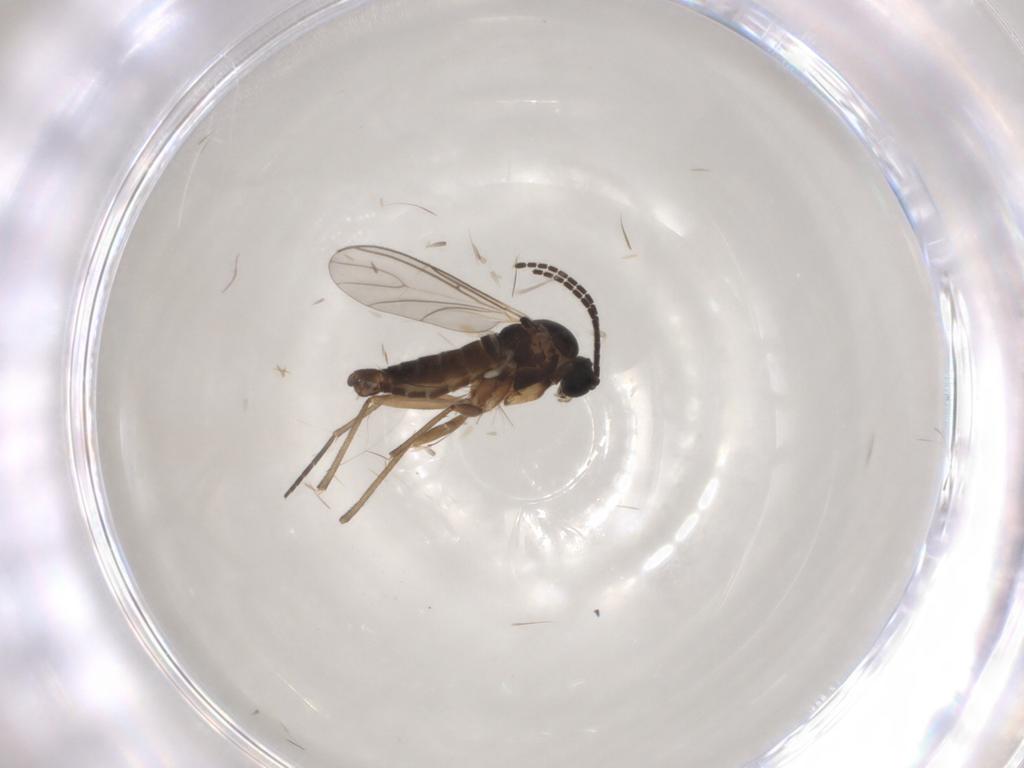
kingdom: Animalia
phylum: Arthropoda
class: Insecta
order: Diptera
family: Sciaridae
